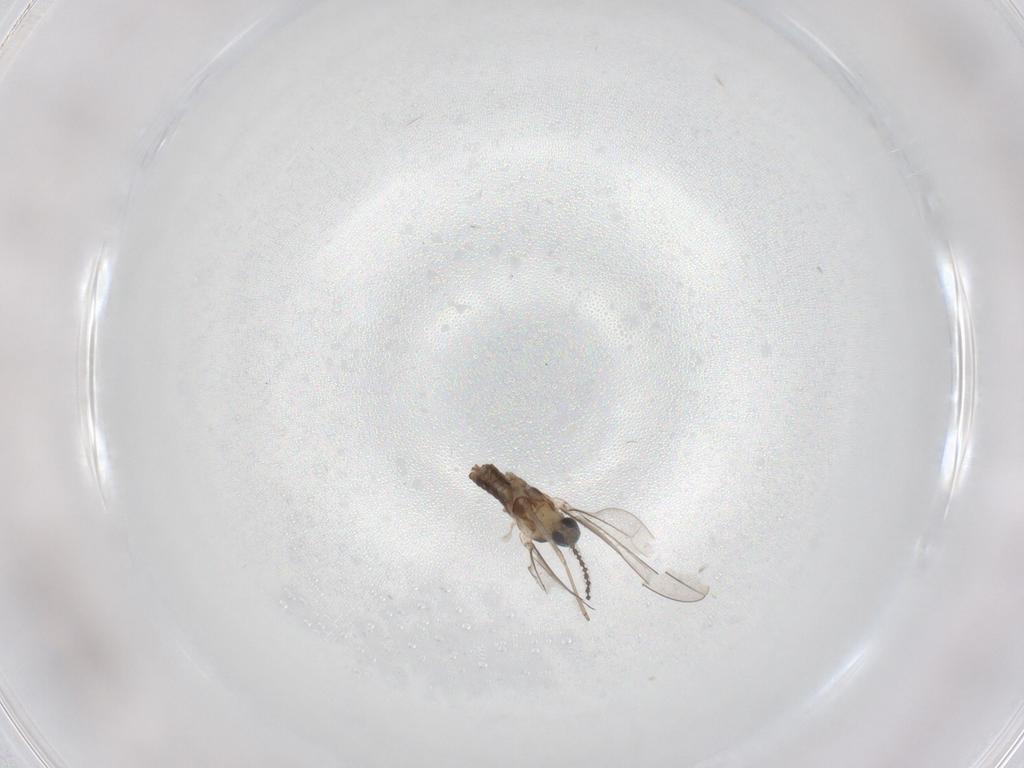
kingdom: Animalia
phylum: Arthropoda
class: Insecta
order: Diptera
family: Cecidomyiidae
